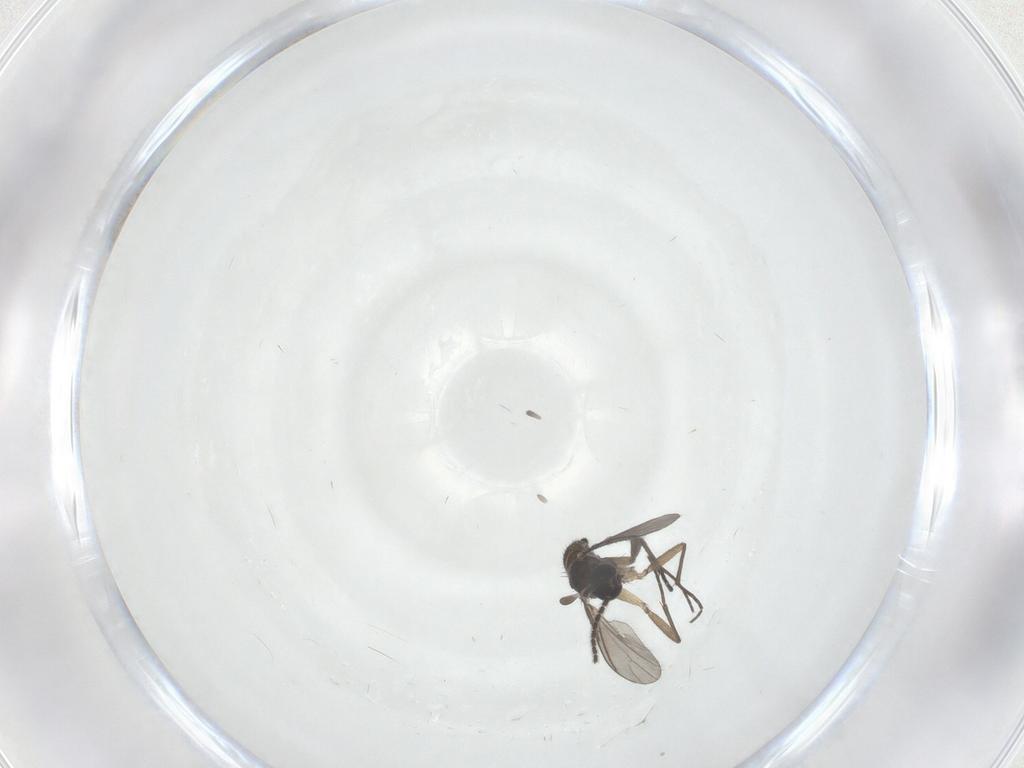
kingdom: Animalia
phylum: Arthropoda
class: Insecta
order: Diptera
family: Sciaridae
